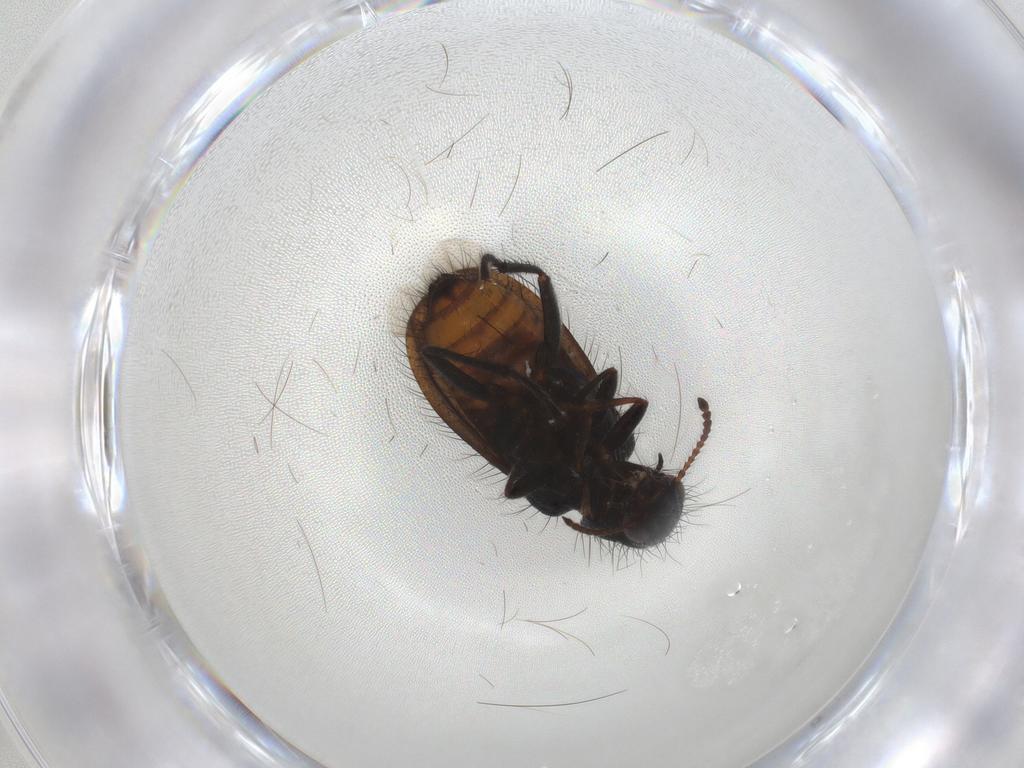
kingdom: Animalia
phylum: Arthropoda
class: Insecta
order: Coleoptera
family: Melyridae
